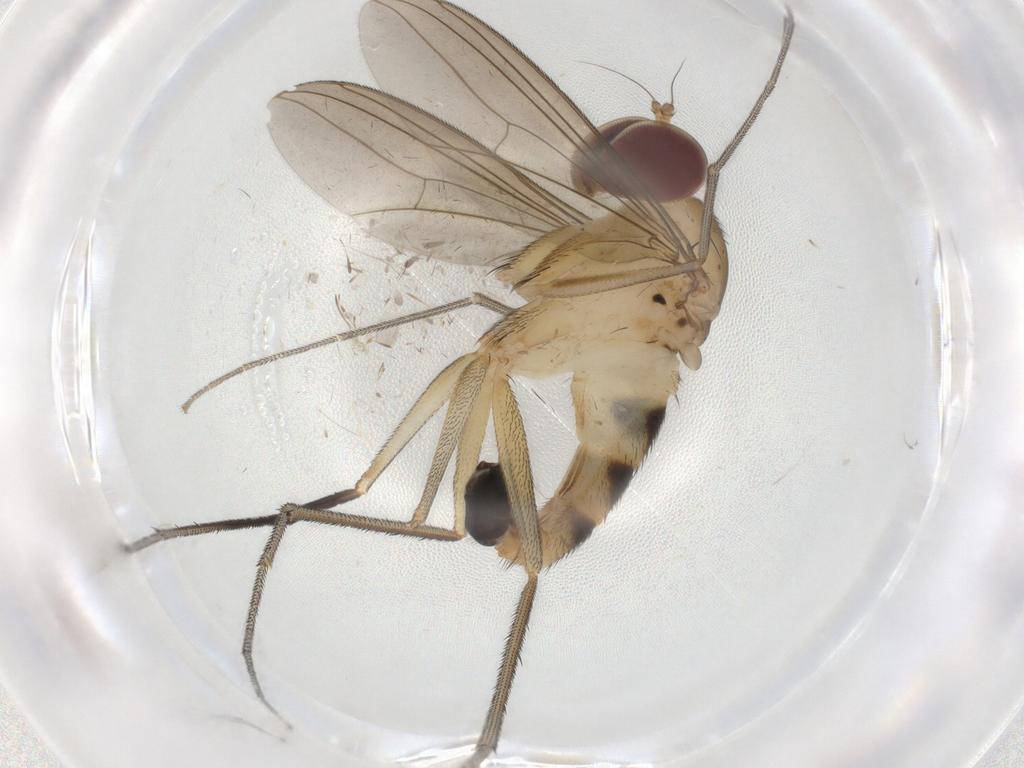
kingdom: Animalia
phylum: Arthropoda
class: Insecta
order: Diptera
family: Dolichopodidae
